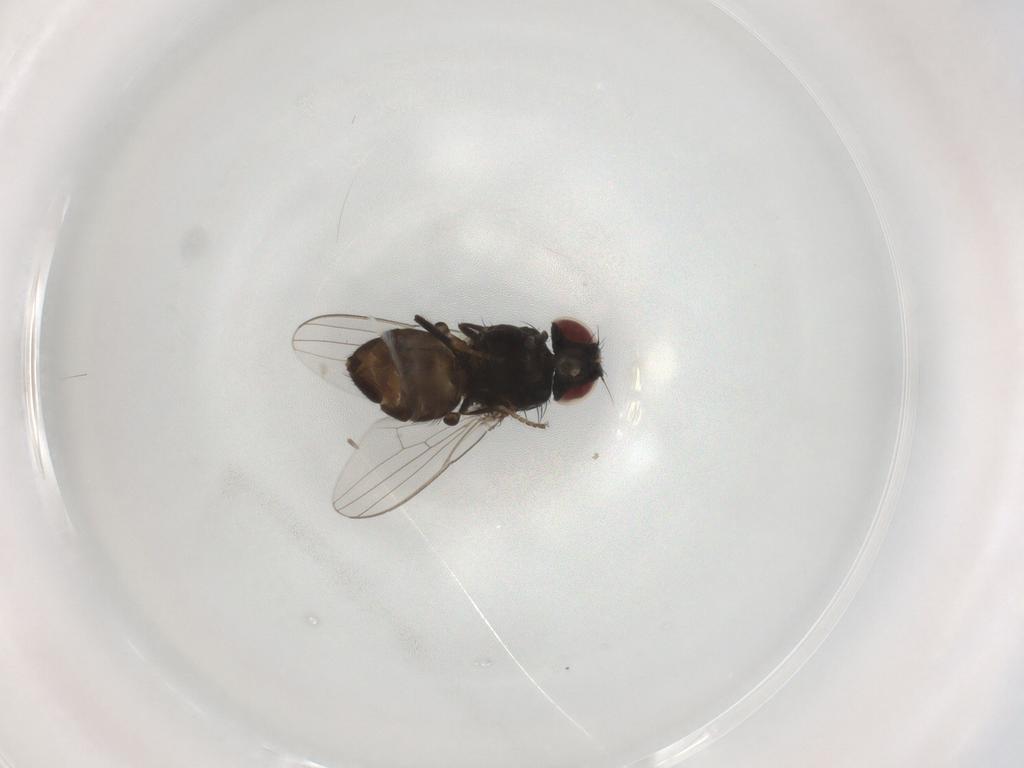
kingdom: Animalia
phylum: Arthropoda
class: Insecta
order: Diptera
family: Milichiidae
